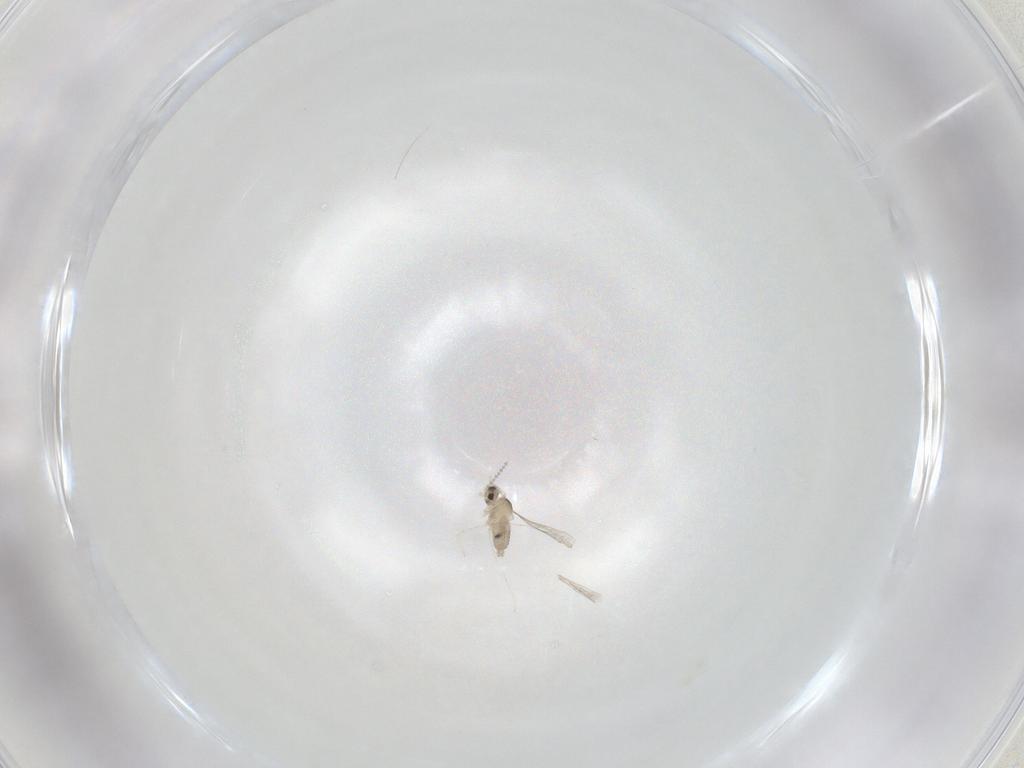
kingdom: Animalia
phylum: Arthropoda
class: Insecta
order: Diptera
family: Cecidomyiidae
